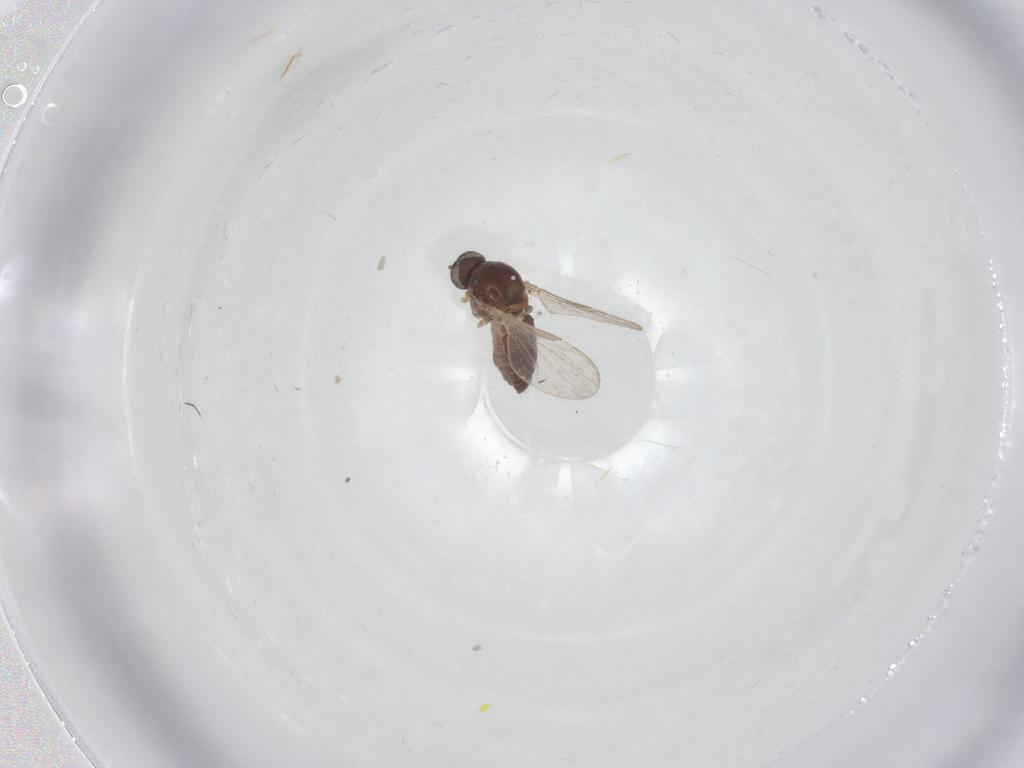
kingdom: Animalia
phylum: Arthropoda
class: Insecta
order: Diptera
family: Ceratopogonidae
